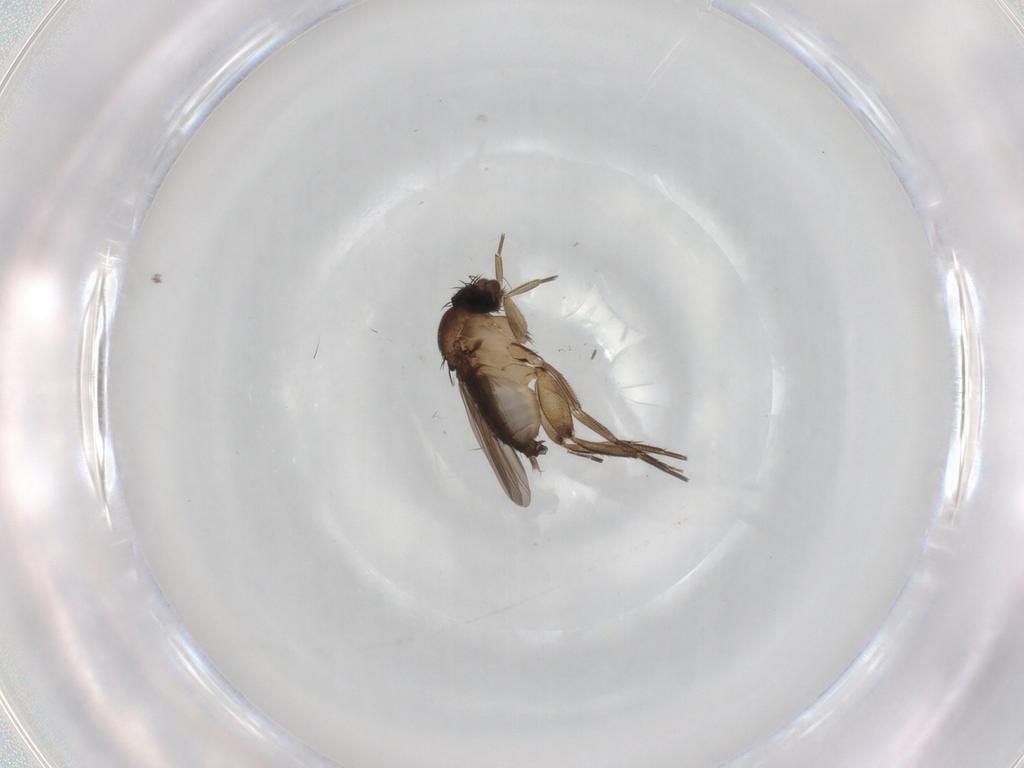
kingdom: Animalia
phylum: Arthropoda
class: Insecta
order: Diptera
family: Phoridae
